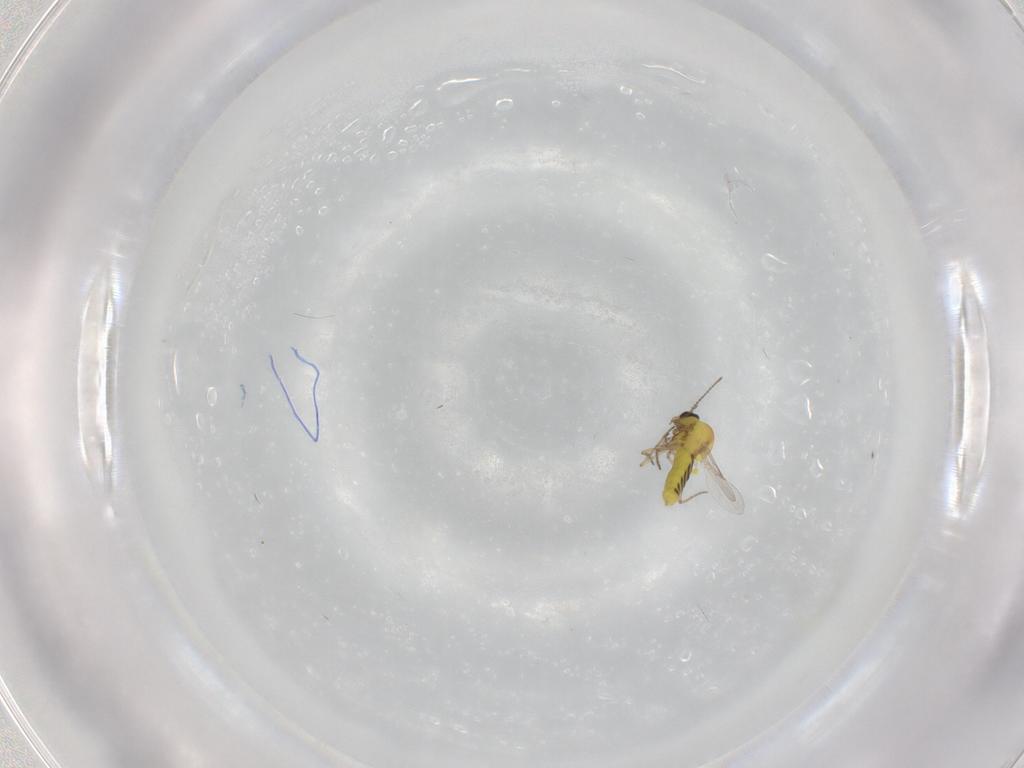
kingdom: Animalia
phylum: Arthropoda
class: Insecta
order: Diptera
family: Ceratopogonidae
